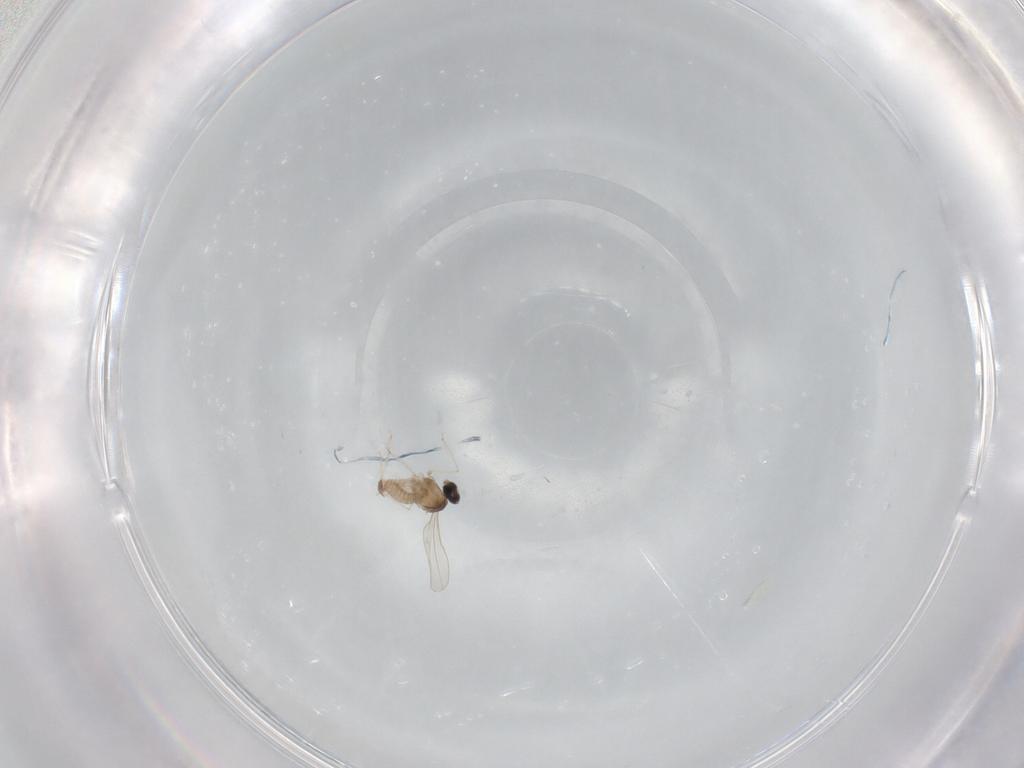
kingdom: Animalia
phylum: Arthropoda
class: Insecta
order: Diptera
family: Cecidomyiidae
